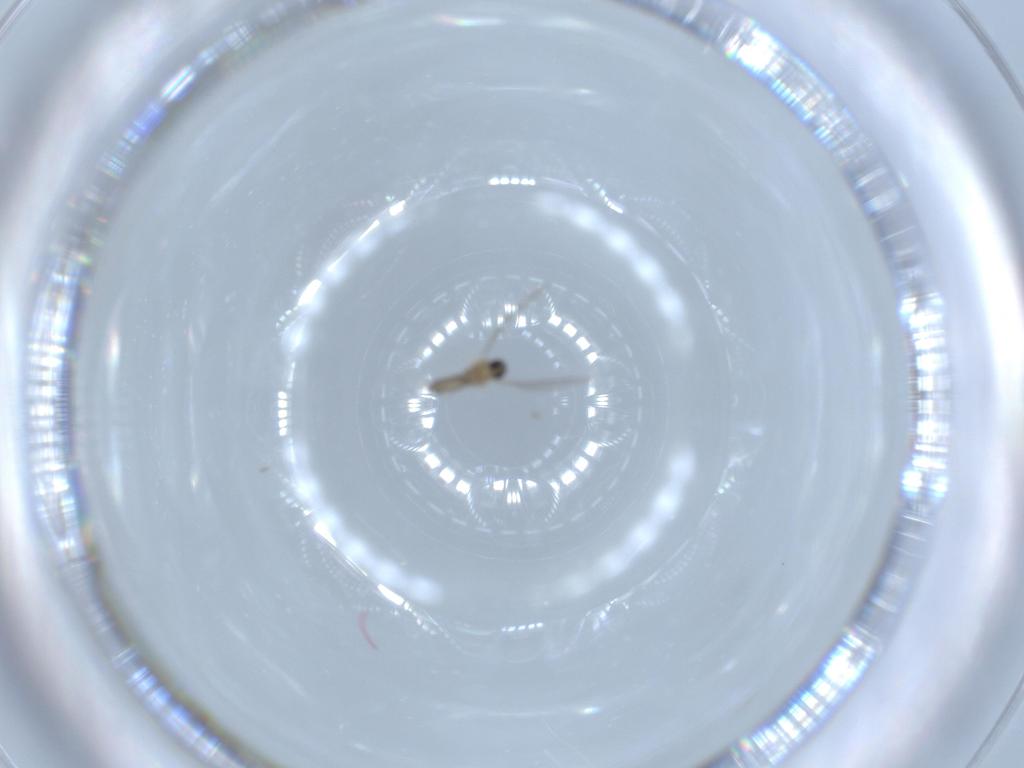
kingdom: Animalia
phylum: Arthropoda
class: Insecta
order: Diptera
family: Cecidomyiidae
